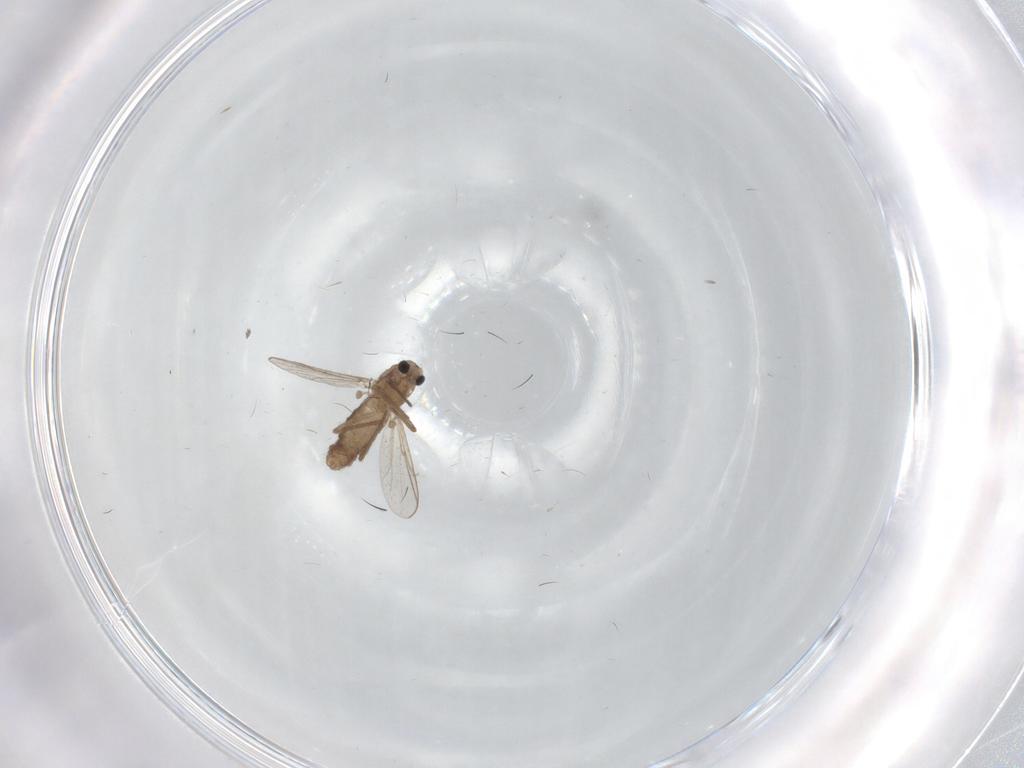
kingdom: Animalia
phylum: Arthropoda
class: Insecta
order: Diptera
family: Chironomidae
